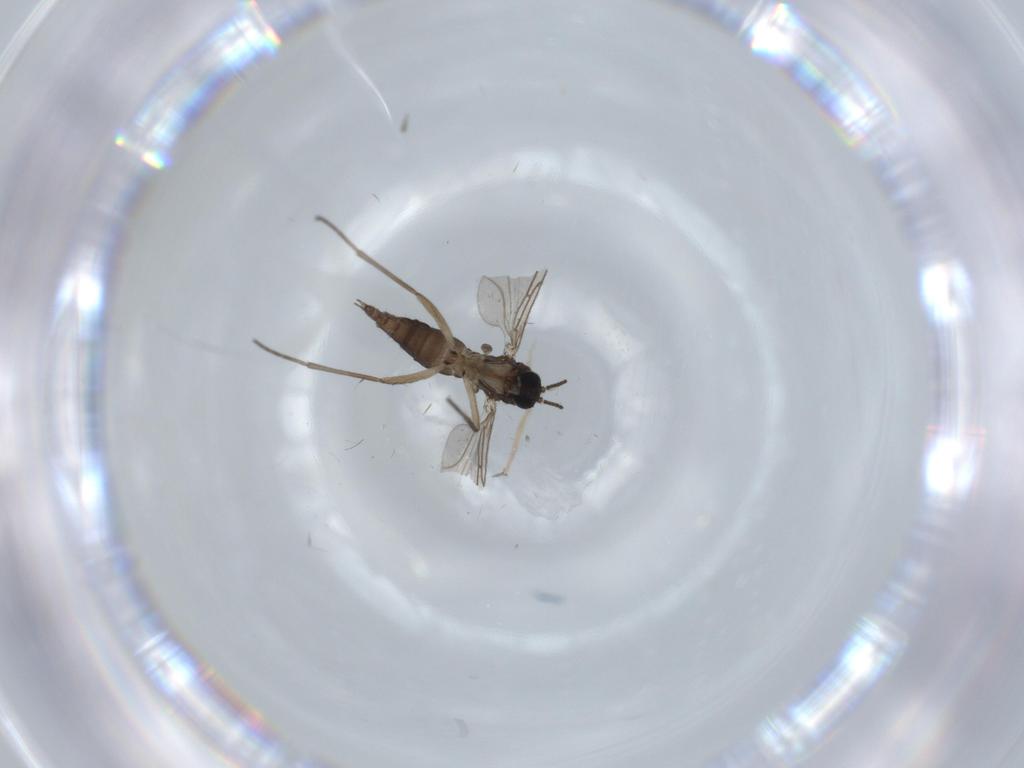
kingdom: Animalia
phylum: Arthropoda
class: Insecta
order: Diptera
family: Sciaridae
